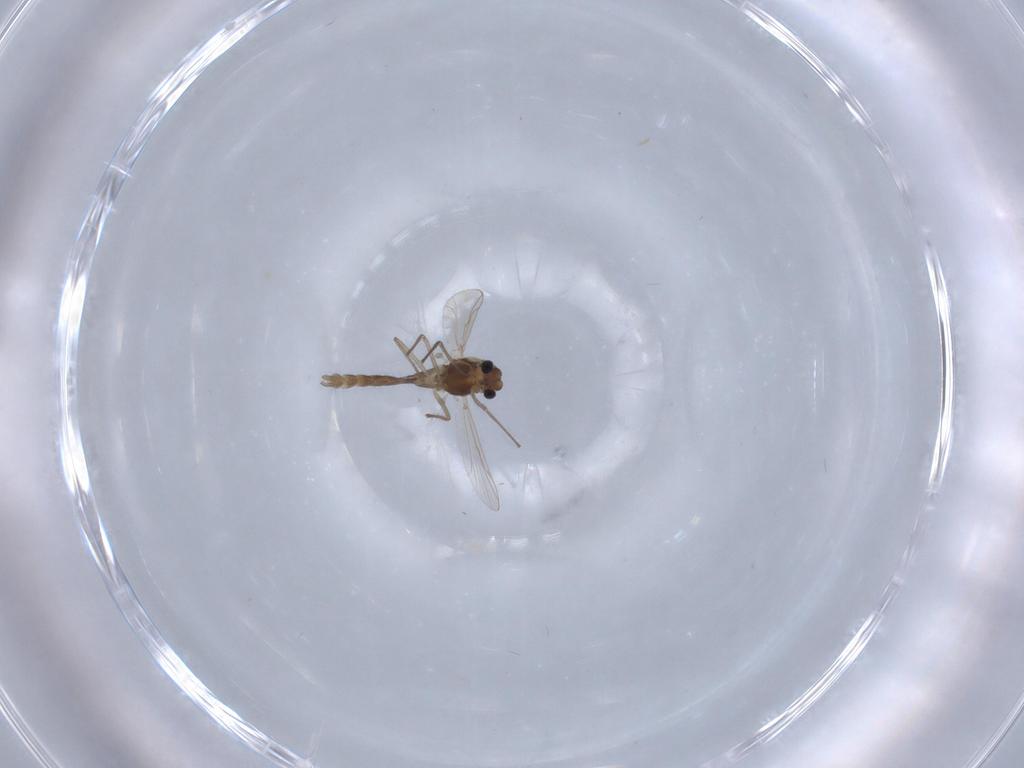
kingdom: Animalia
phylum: Arthropoda
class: Insecta
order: Diptera
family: Chironomidae
